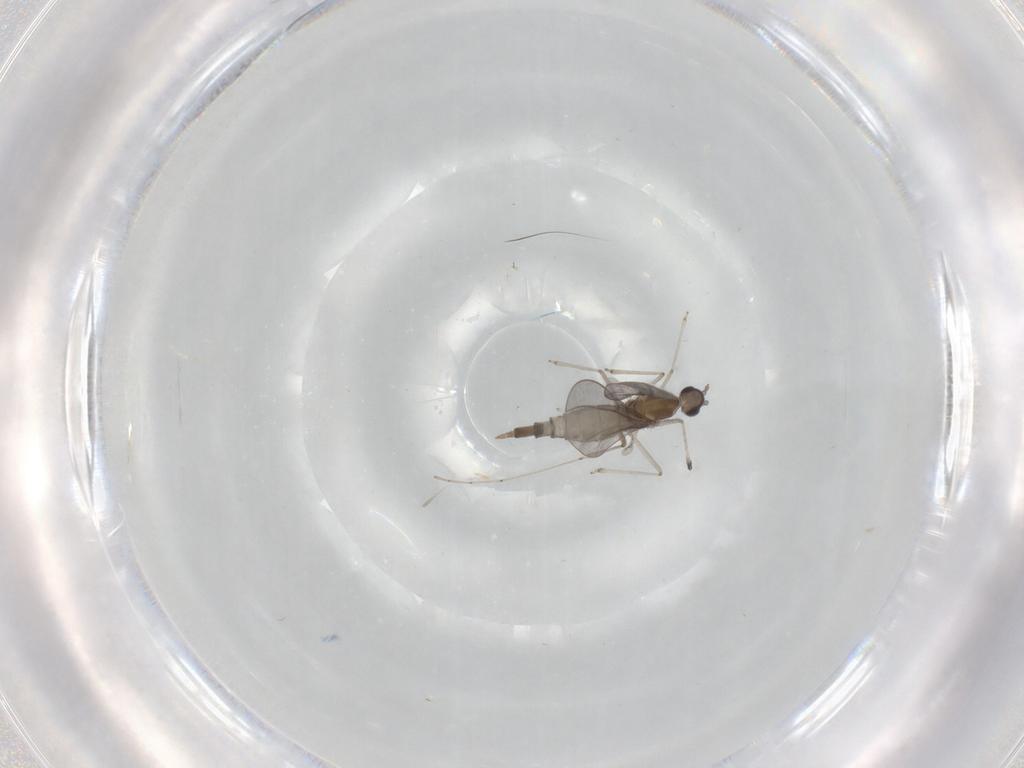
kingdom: Animalia
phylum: Arthropoda
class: Insecta
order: Diptera
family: Cecidomyiidae
